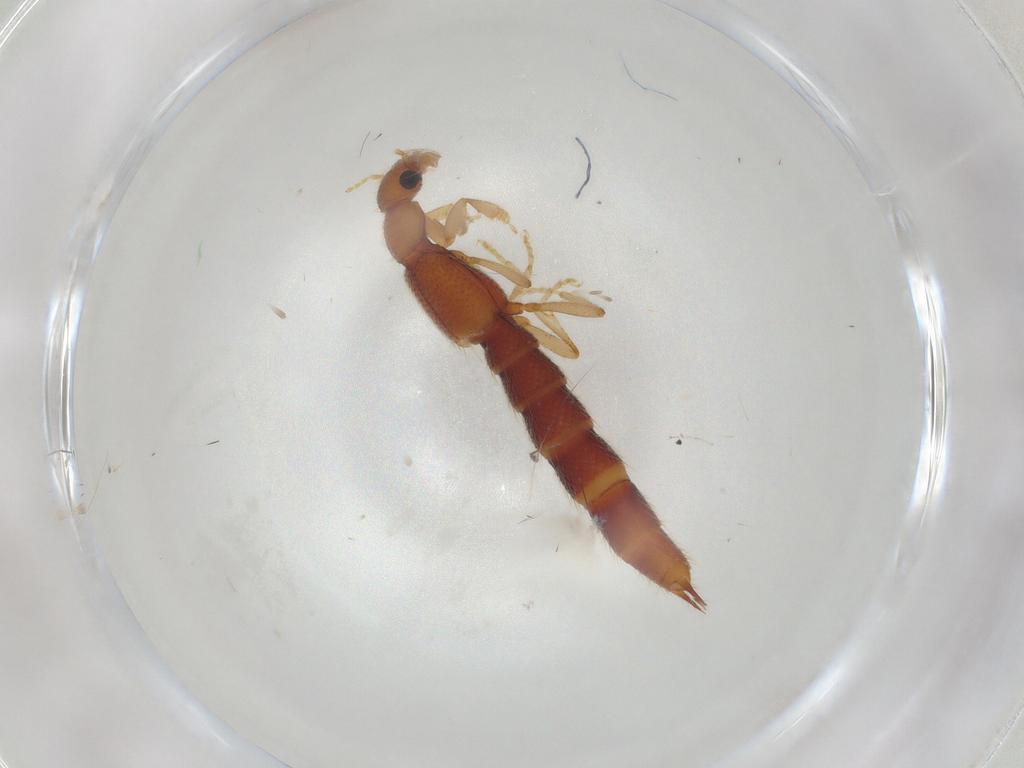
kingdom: Animalia
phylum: Arthropoda
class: Insecta
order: Coleoptera
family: Staphylinidae
